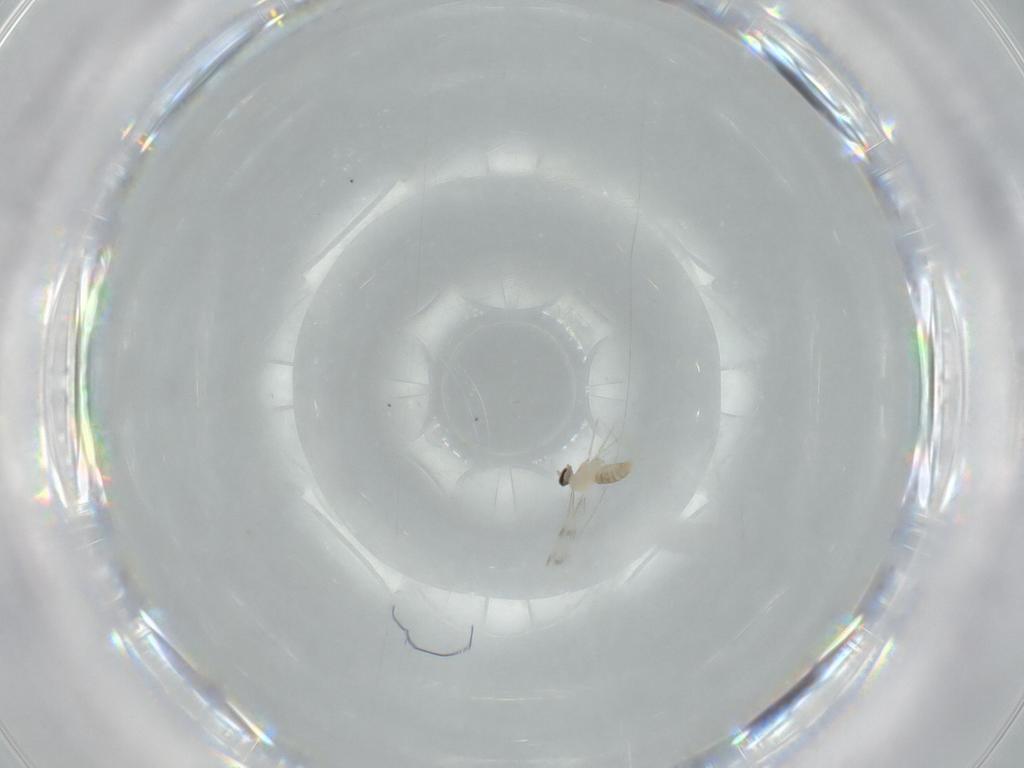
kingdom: Animalia
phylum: Arthropoda
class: Insecta
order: Diptera
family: Cecidomyiidae
